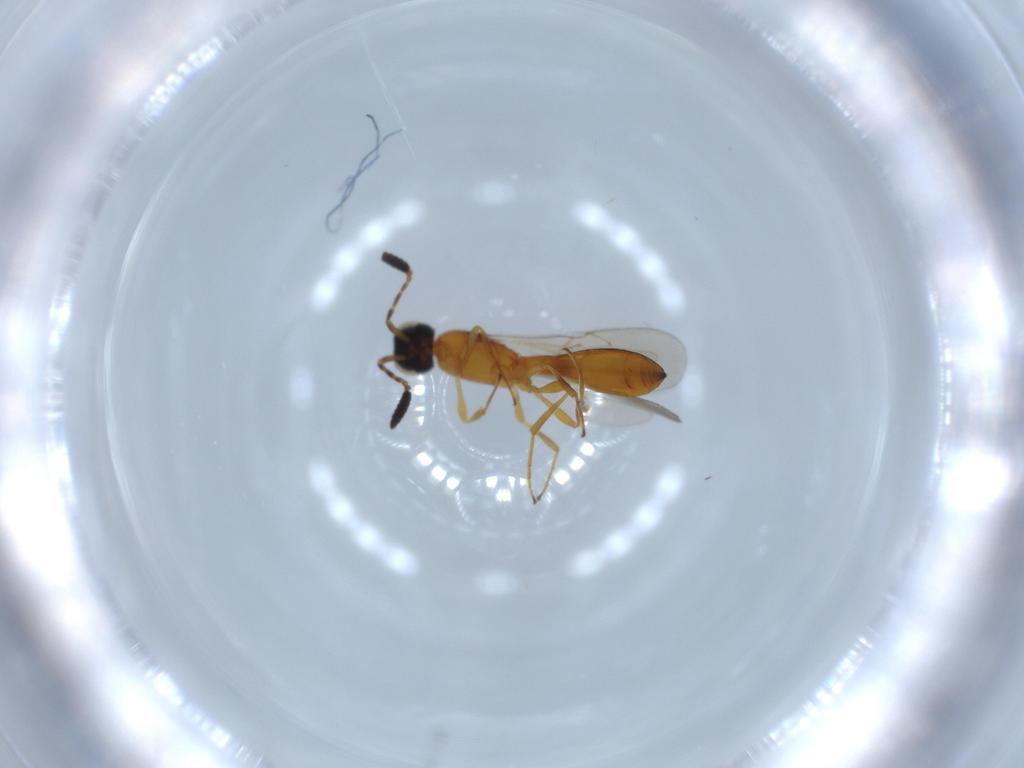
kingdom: Animalia
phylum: Arthropoda
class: Insecta
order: Hymenoptera
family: Scelionidae
